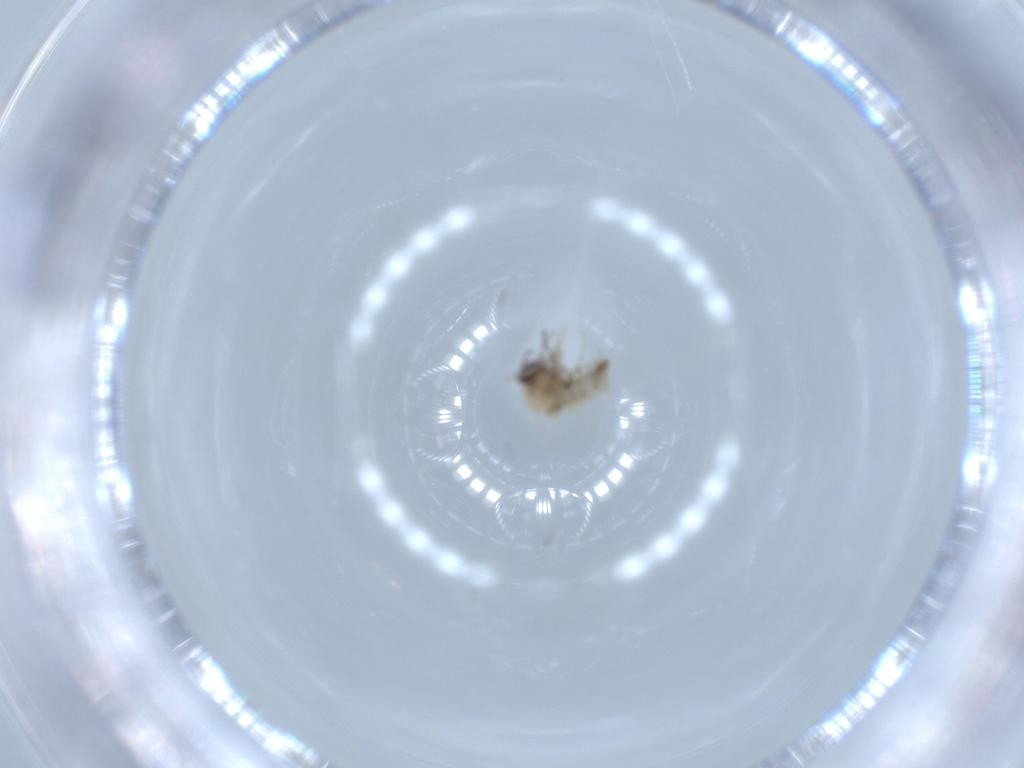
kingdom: Animalia
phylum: Arthropoda
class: Insecta
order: Diptera
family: Ceratopogonidae
